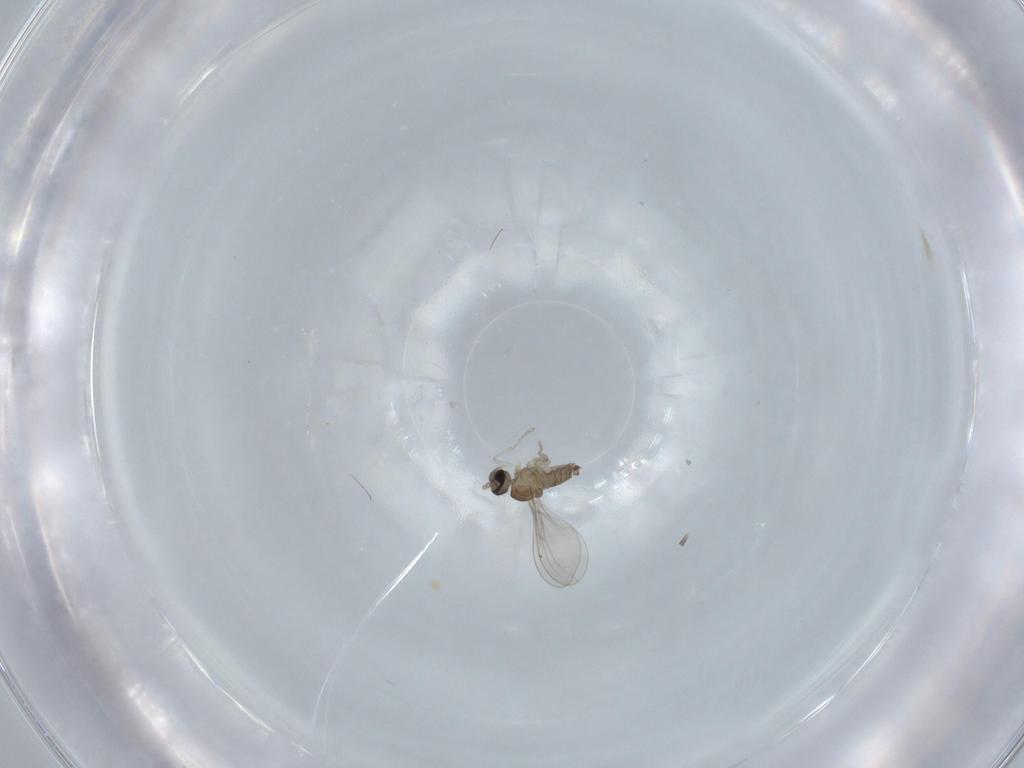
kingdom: Animalia
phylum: Arthropoda
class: Insecta
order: Diptera
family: Cecidomyiidae
